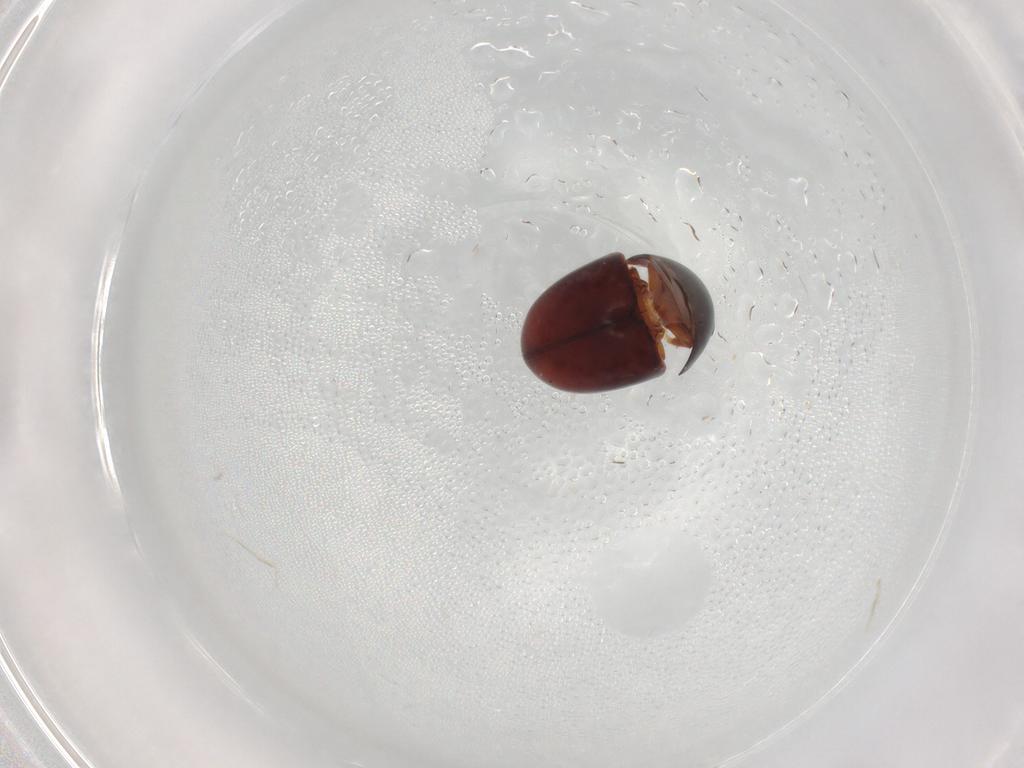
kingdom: Animalia
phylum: Arthropoda
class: Insecta
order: Coleoptera
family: Phalacridae
